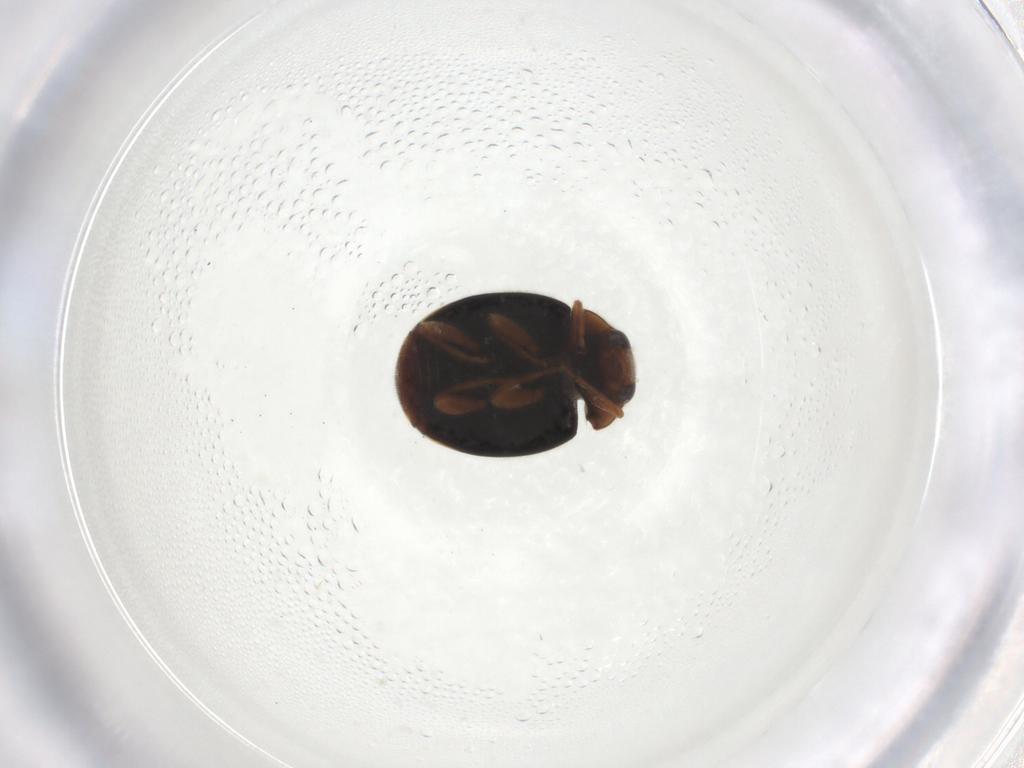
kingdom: Animalia
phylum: Arthropoda
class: Insecta
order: Coleoptera
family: Coccinellidae
